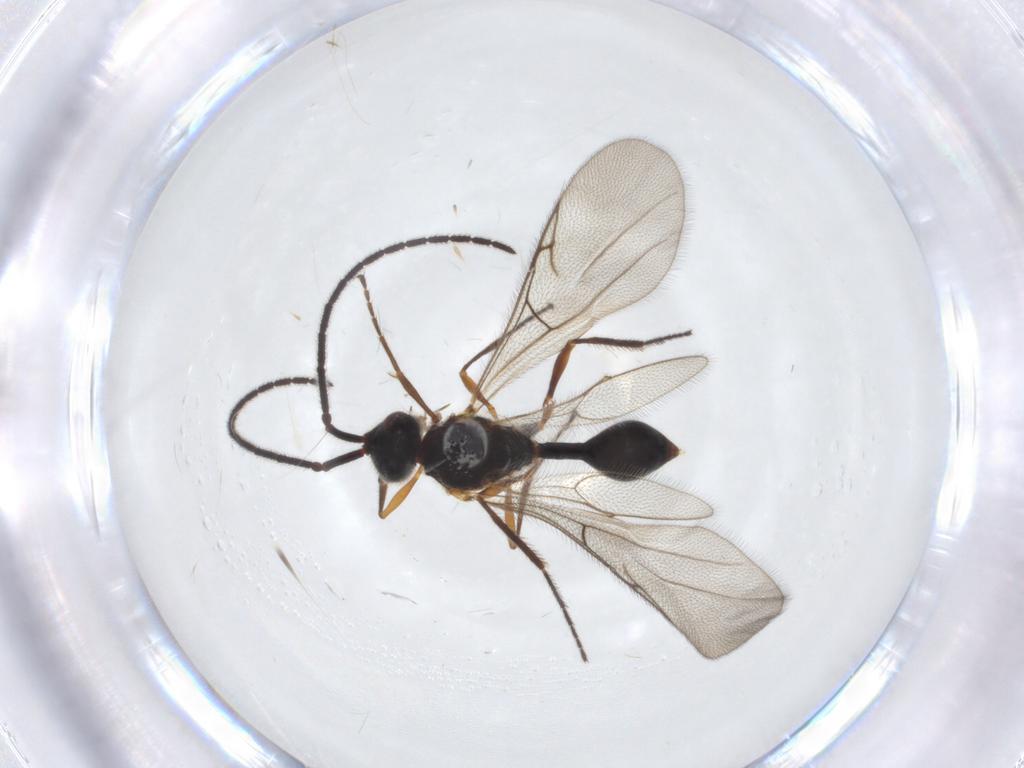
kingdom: Animalia
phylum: Arthropoda
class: Insecta
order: Hymenoptera
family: Diapriidae
